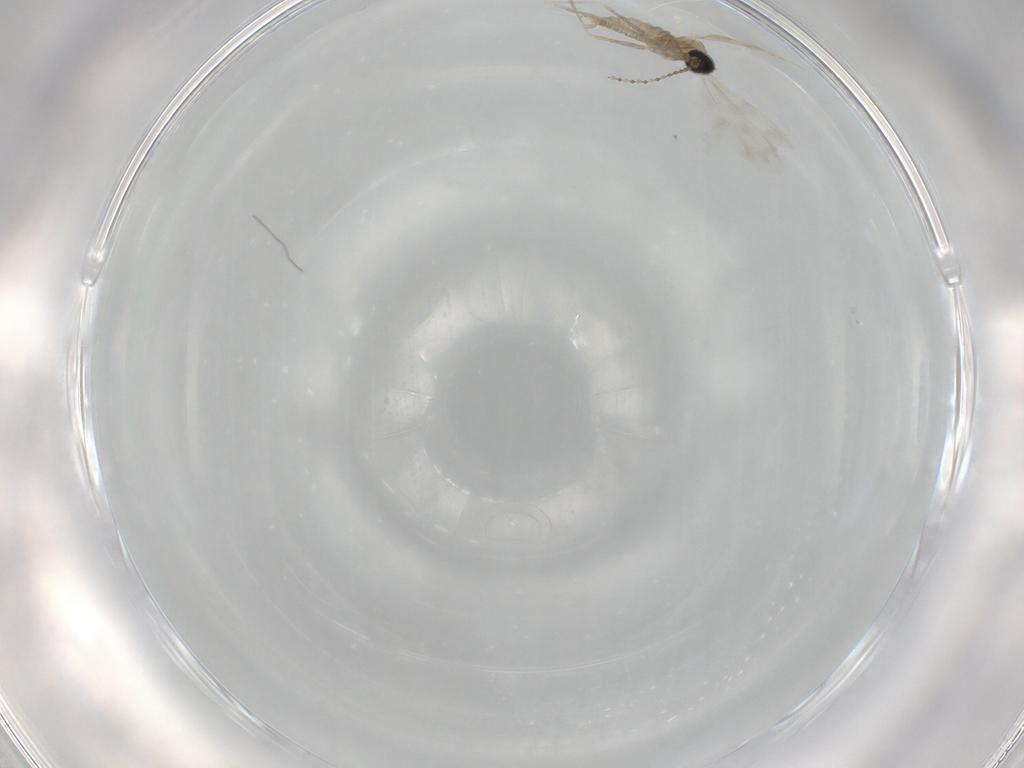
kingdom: Animalia
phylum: Arthropoda
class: Insecta
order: Diptera
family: Cecidomyiidae
